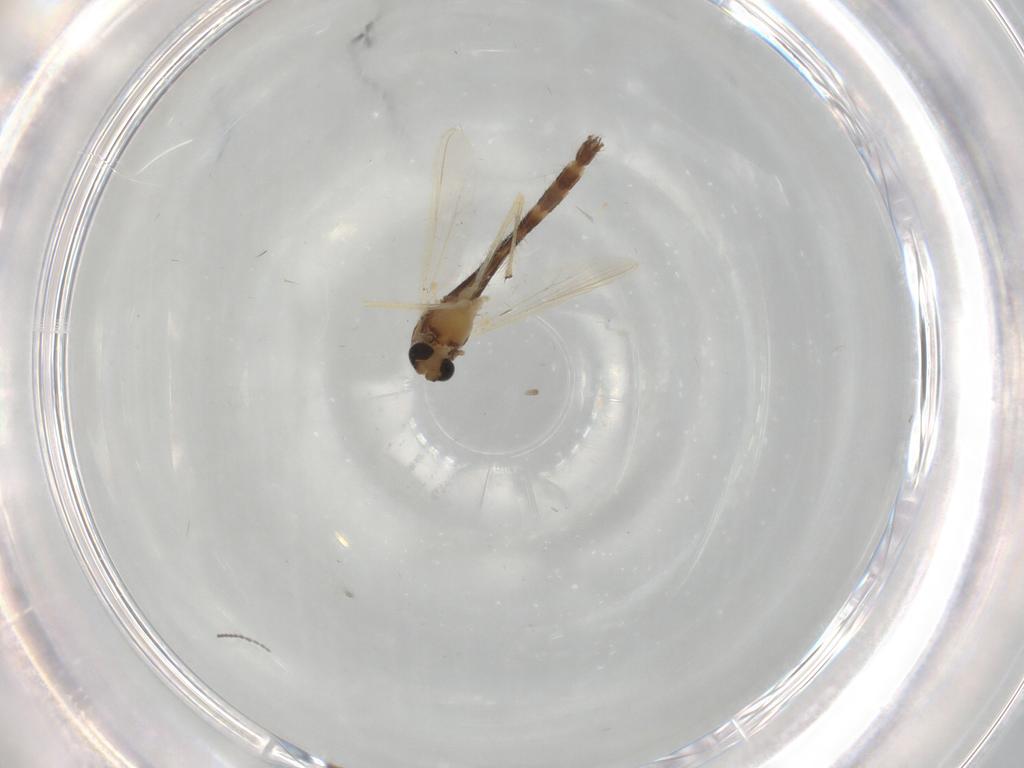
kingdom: Animalia
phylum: Arthropoda
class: Insecta
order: Diptera
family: Chironomidae
